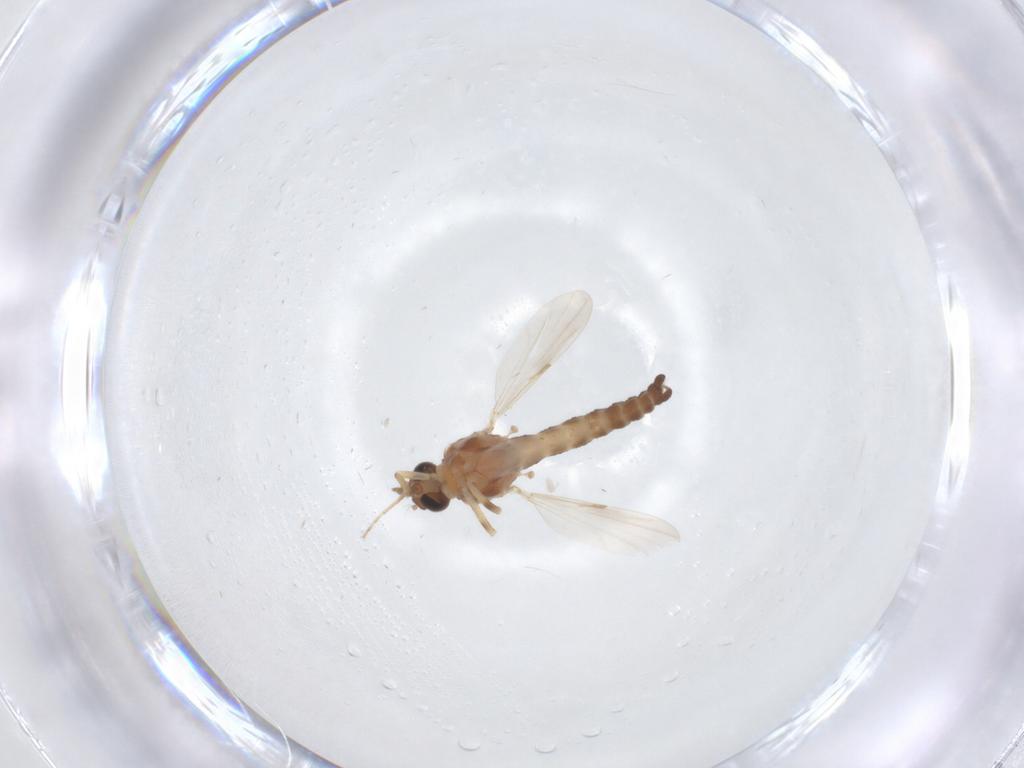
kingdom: Animalia
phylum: Arthropoda
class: Insecta
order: Diptera
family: Ceratopogonidae
